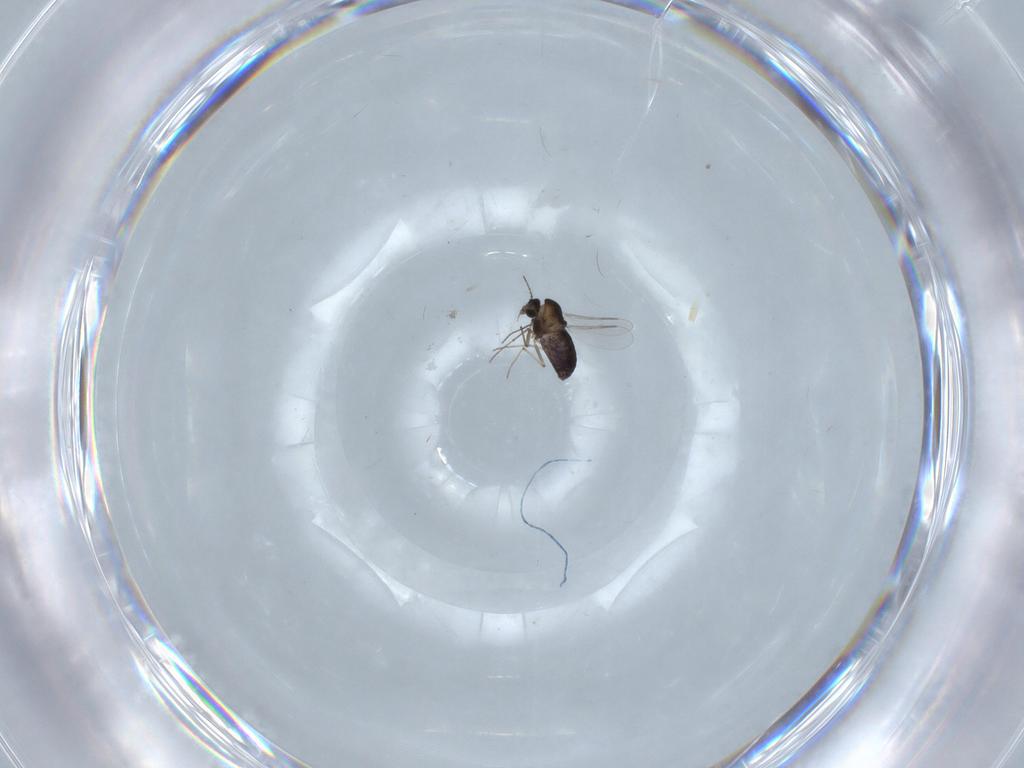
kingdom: Animalia
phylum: Arthropoda
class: Insecta
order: Diptera
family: Chironomidae
